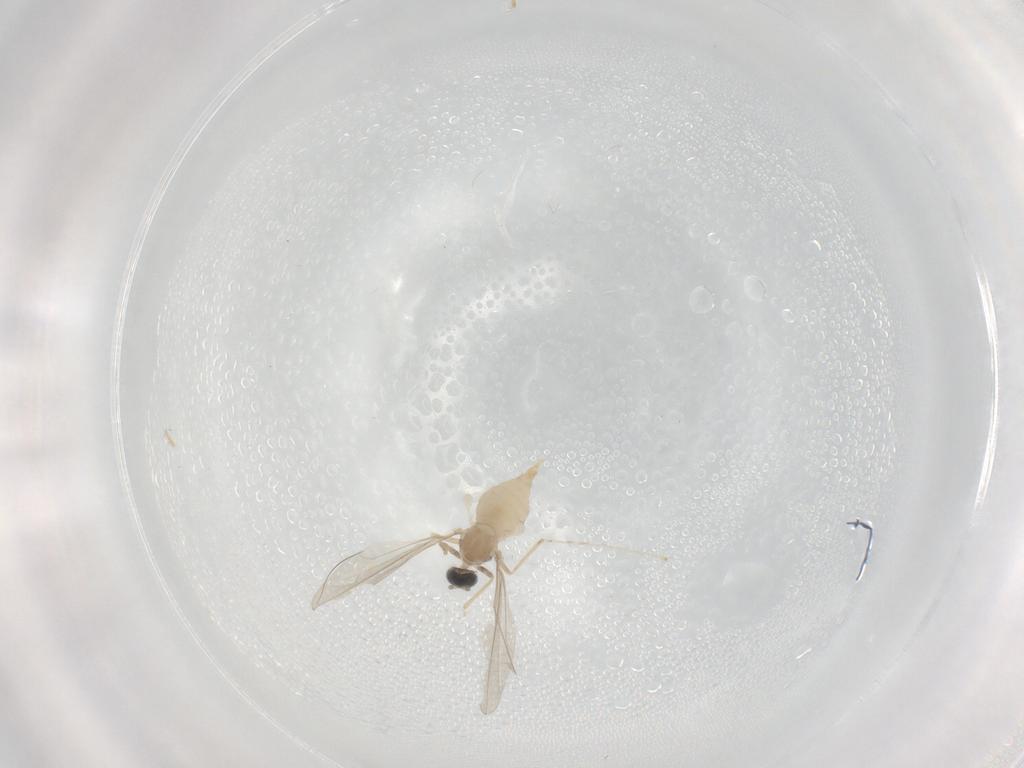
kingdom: Animalia
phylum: Arthropoda
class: Insecta
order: Diptera
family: Cecidomyiidae
